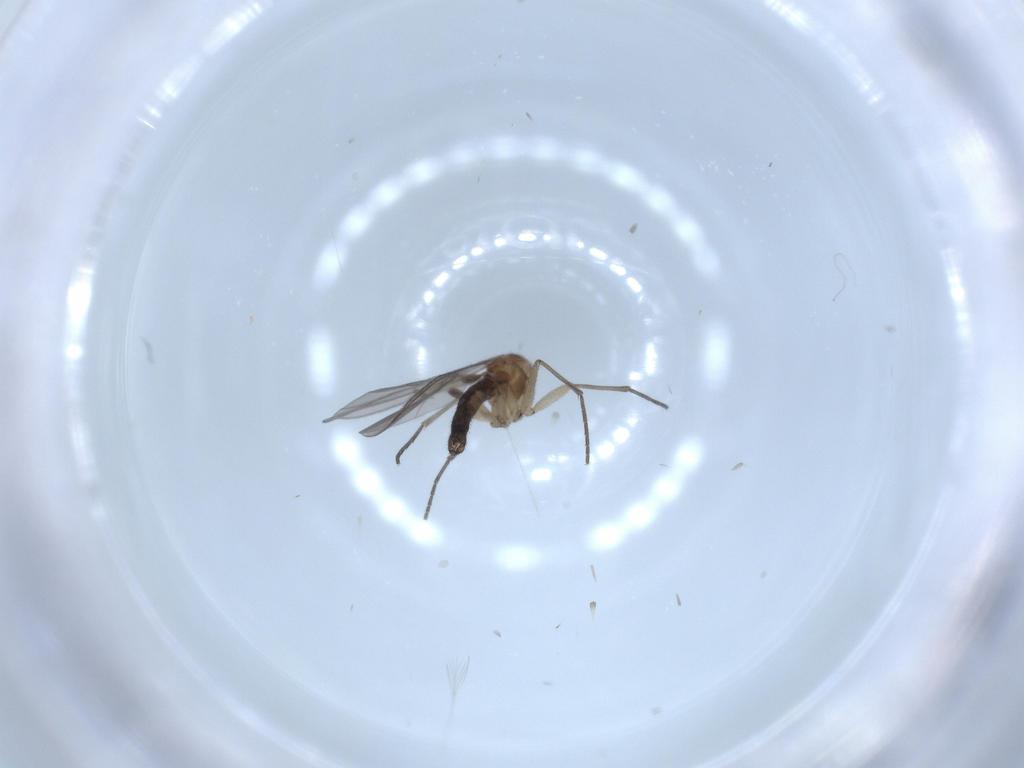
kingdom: Animalia
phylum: Arthropoda
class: Insecta
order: Diptera
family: Sciaridae
